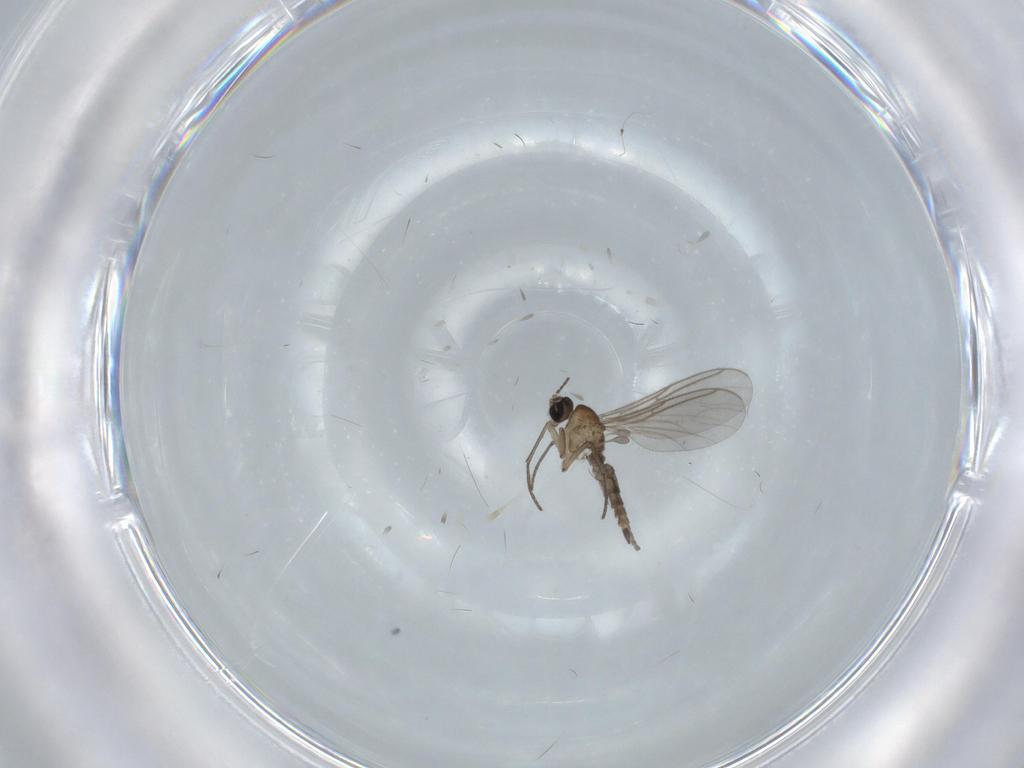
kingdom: Animalia
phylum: Arthropoda
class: Insecta
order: Diptera
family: Sciaridae
